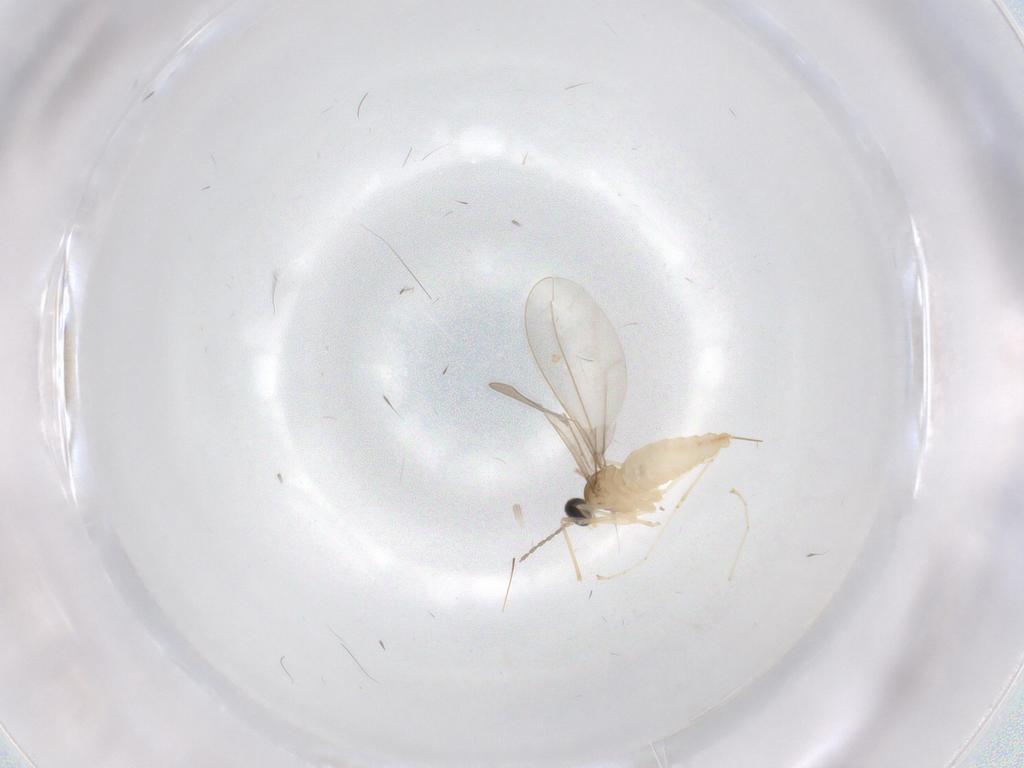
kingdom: Animalia
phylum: Arthropoda
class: Insecta
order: Diptera
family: Cecidomyiidae
